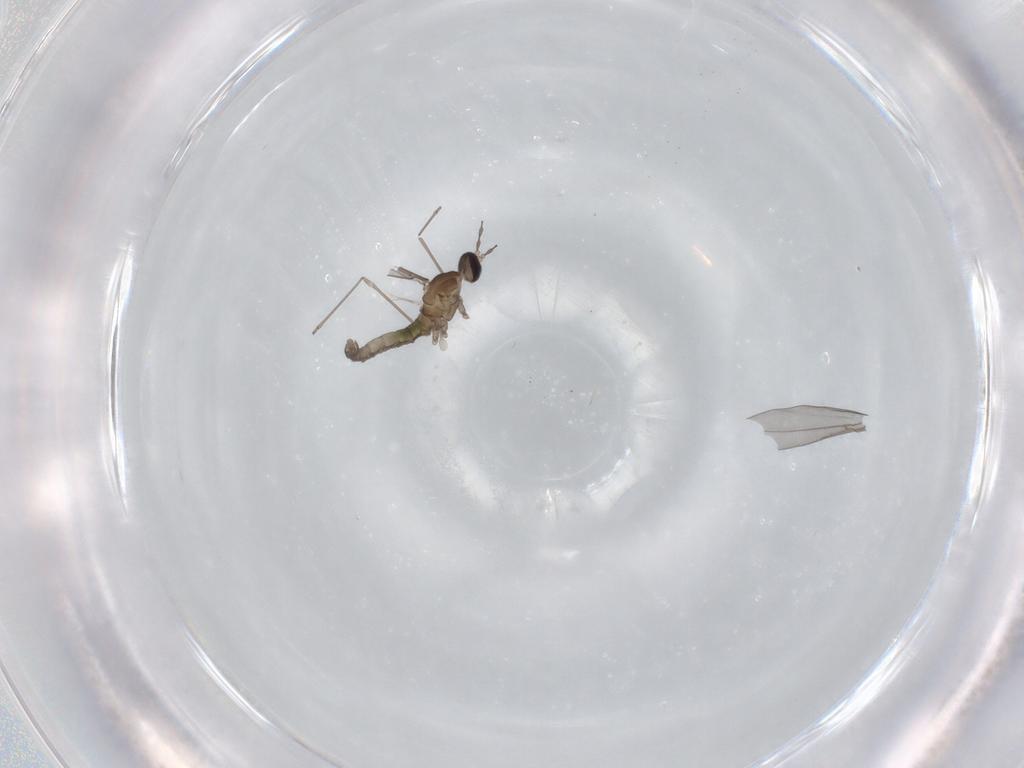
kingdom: Animalia
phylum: Arthropoda
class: Insecta
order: Diptera
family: Cecidomyiidae
